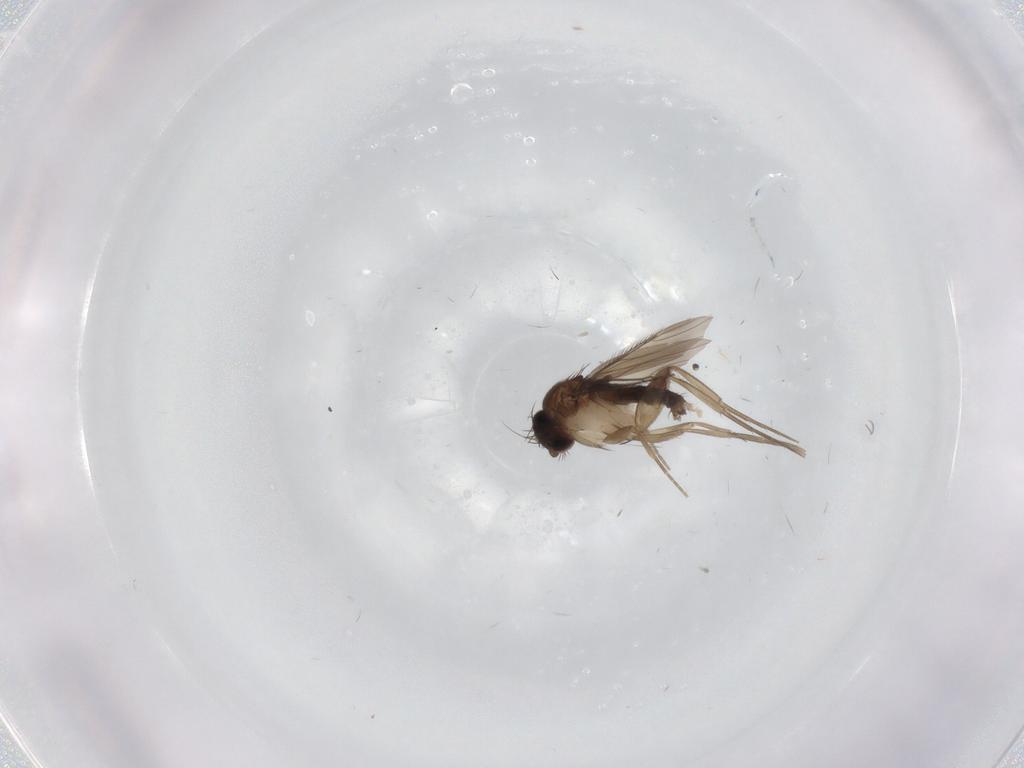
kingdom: Animalia
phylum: Arthropoda
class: Insecta
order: Diptera
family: Phoridae
